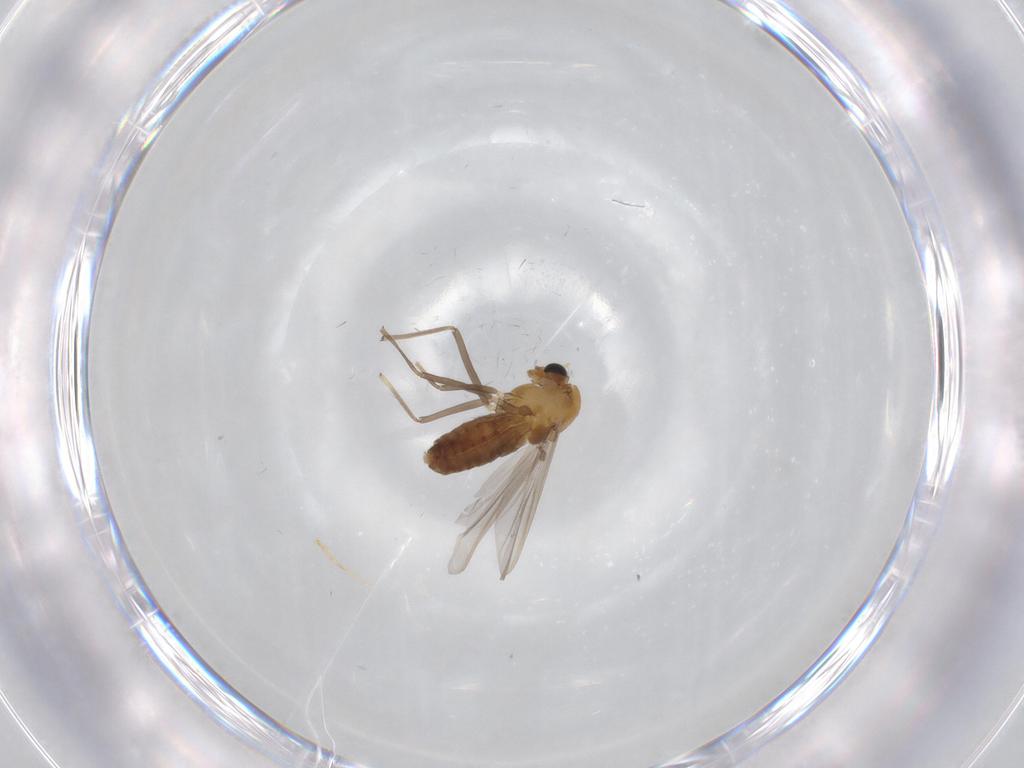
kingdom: Animalia
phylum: Arthropoda
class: Insecta
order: Diptera
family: Chironomidae
